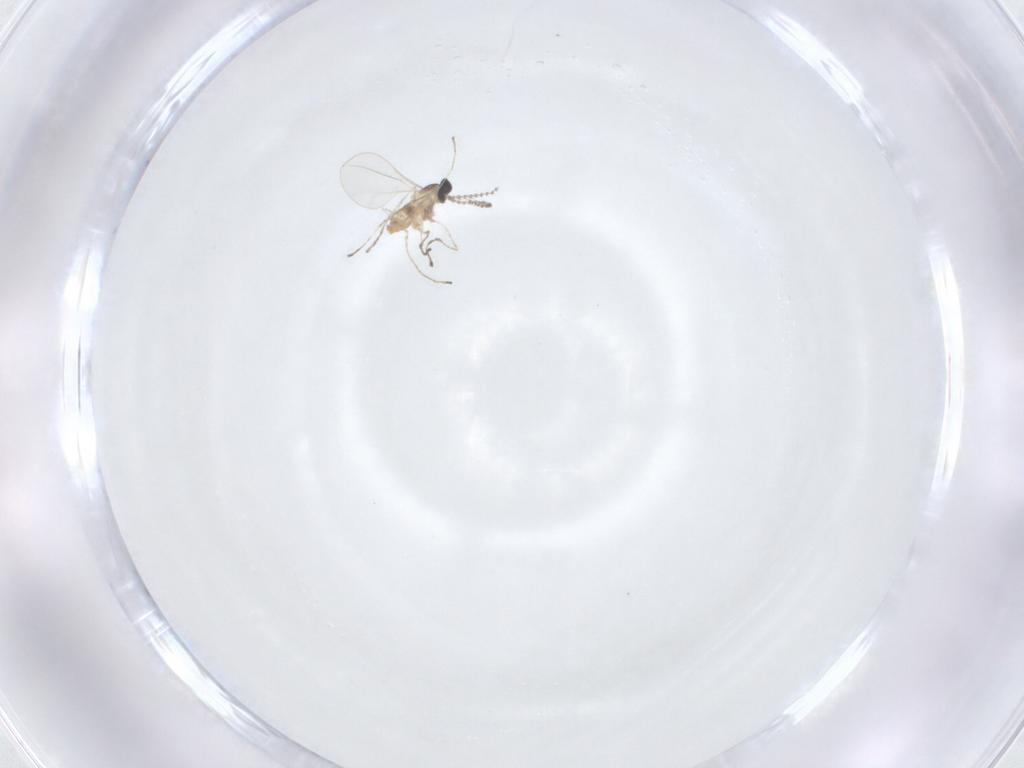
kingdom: Animalia
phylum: Arthropoda
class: Insecta
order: Diptera
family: Cecidomyiidae
